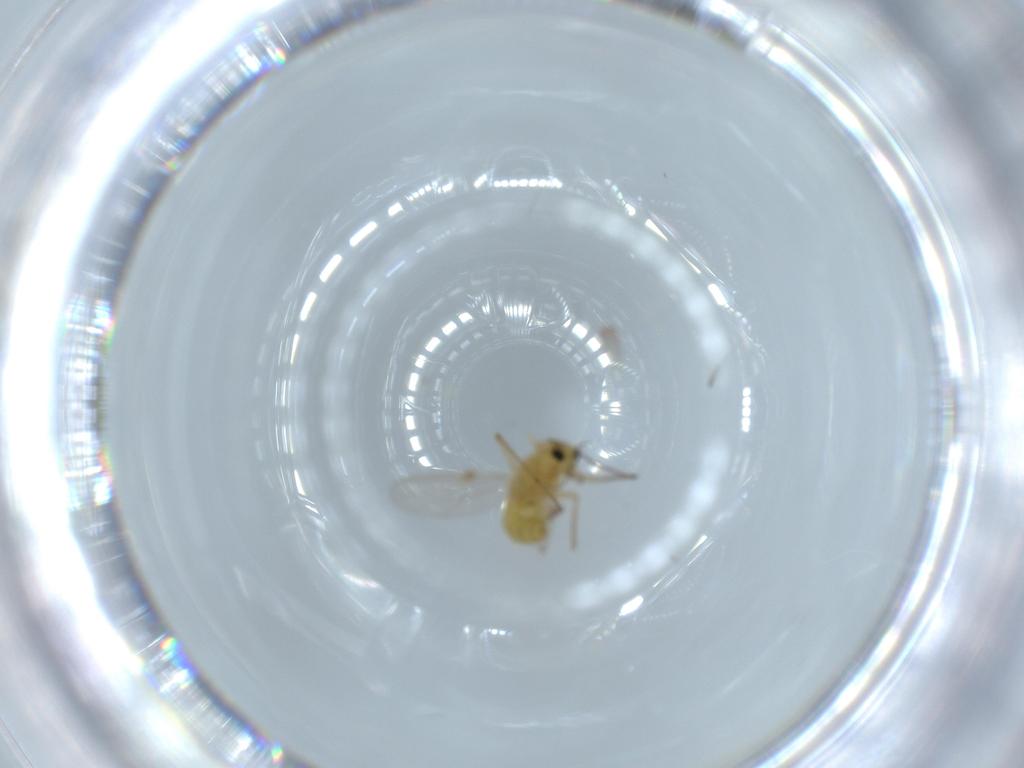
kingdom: Animalia
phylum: Arthropoda
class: Insecta
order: Diptera
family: Chironomidae
